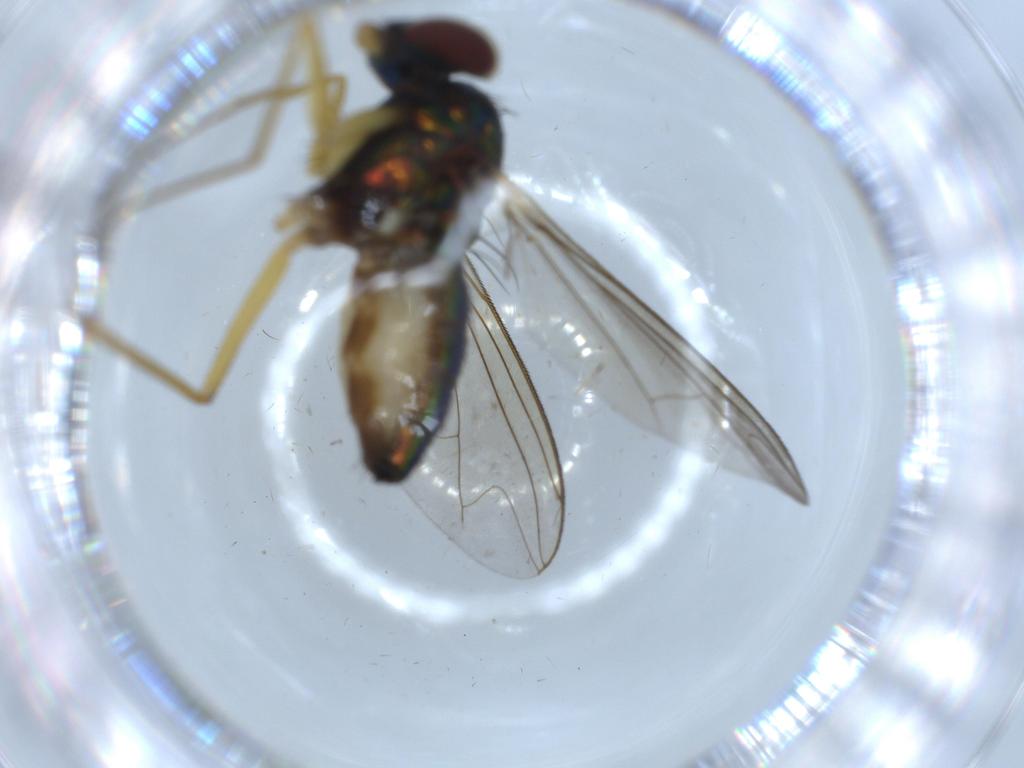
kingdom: Animalia
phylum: Arthropoda
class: Insecta
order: Diptera
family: Dolichopodidae
